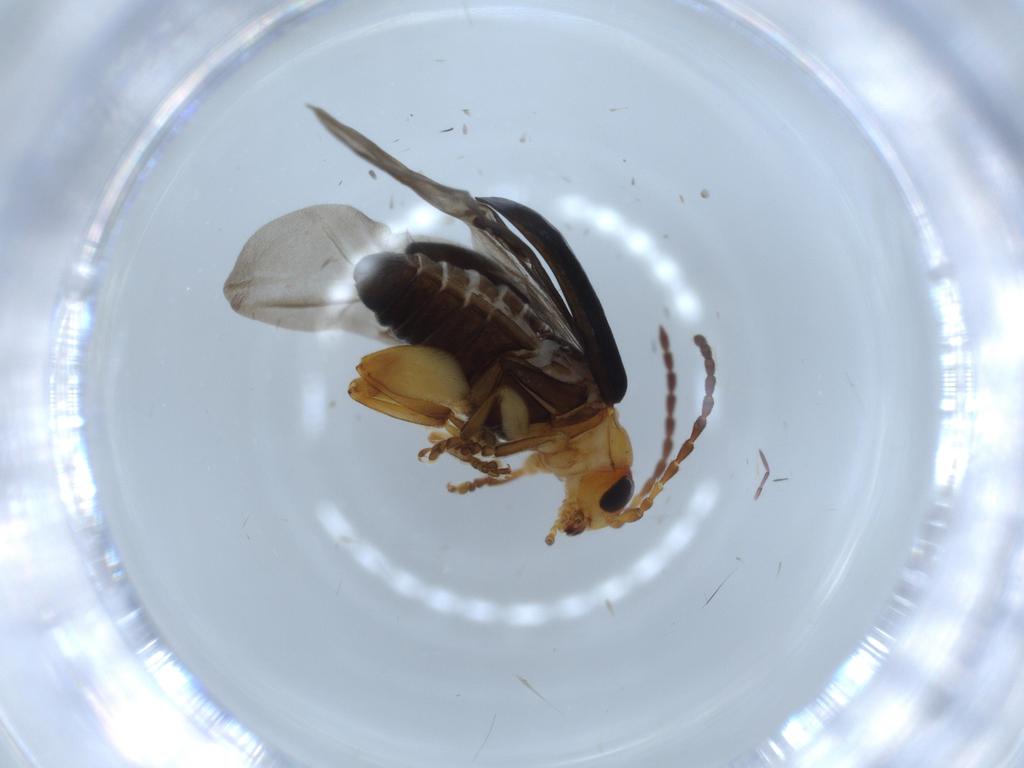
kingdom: Animalia
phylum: Arthropoda
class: Insecta
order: Coleoptera
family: Chrysomelidae
